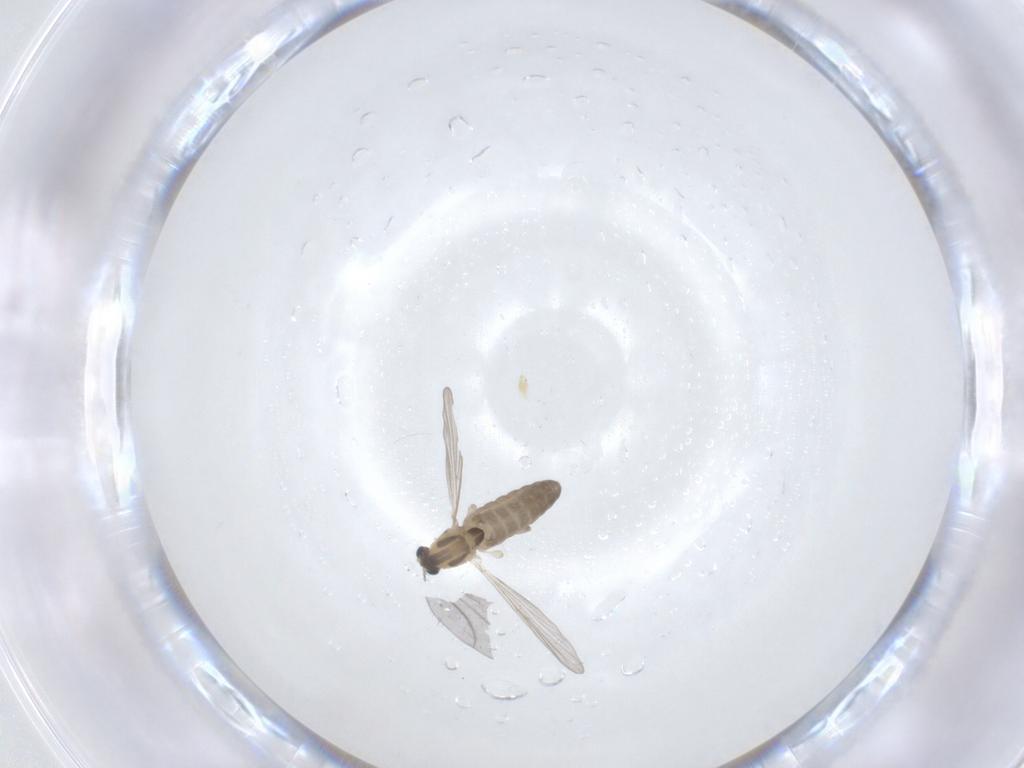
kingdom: Animalia
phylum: Arthropoda
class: Insecta
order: Diptera
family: Chironomidae
